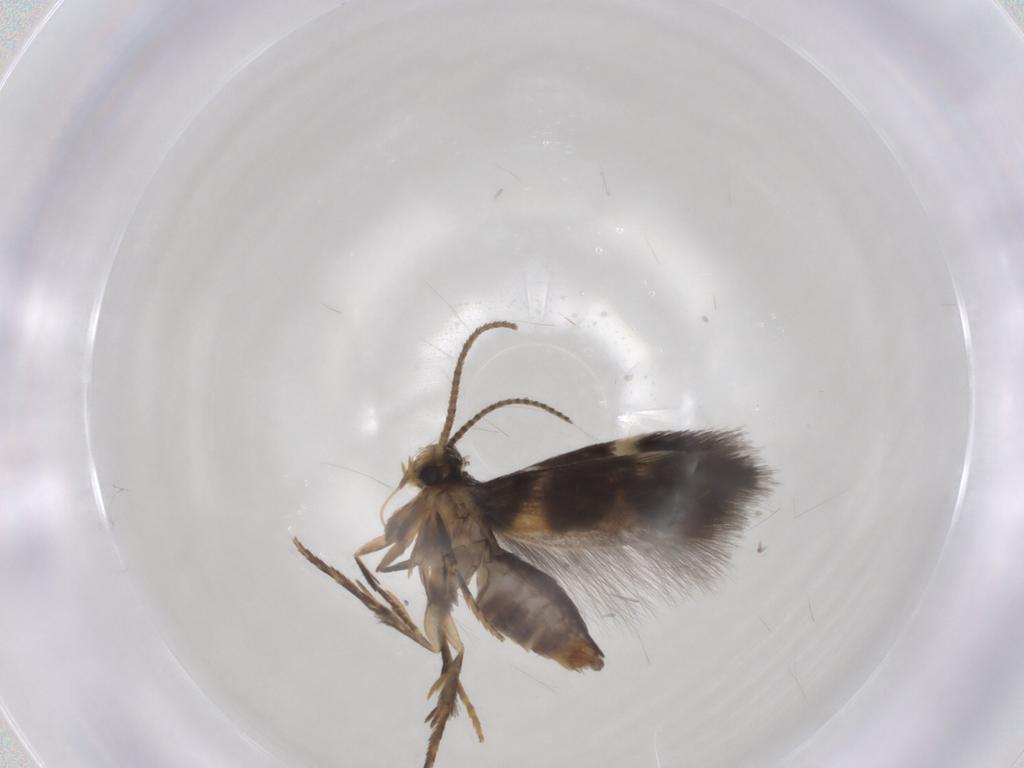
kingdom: Animalia
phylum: Arthropoda
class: Insecta
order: Lepidoptera
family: Heliozelidae
